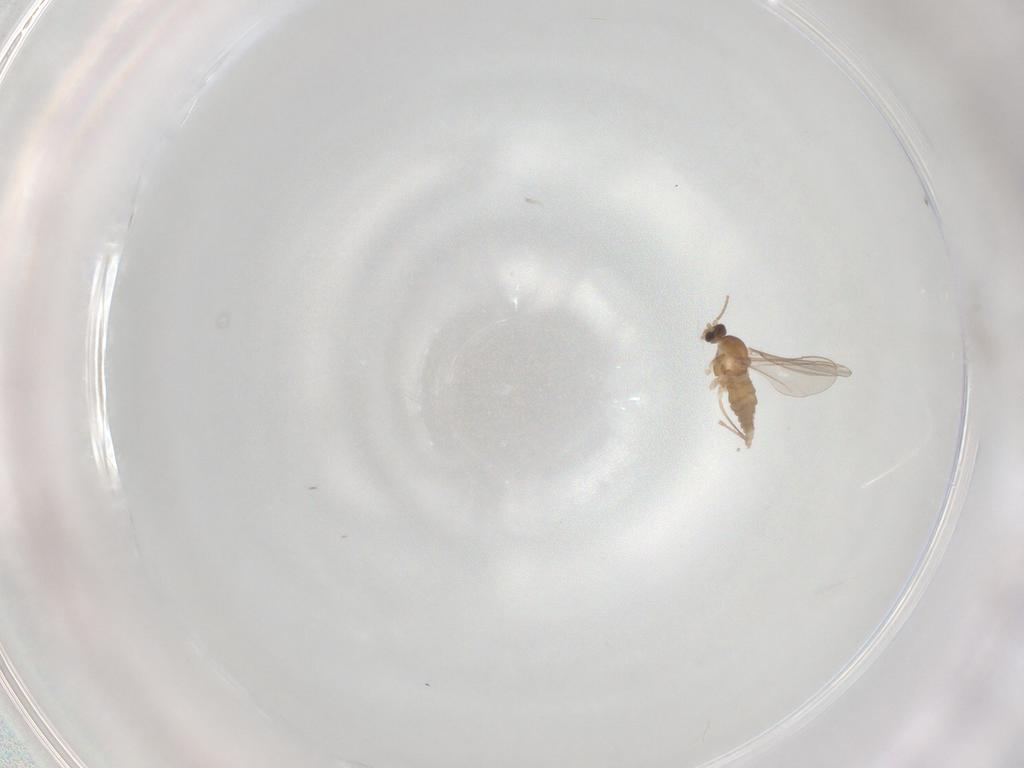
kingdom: Animalia
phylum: Arthropoda
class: Insecta
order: Diptera
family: Cecidomyiidae
